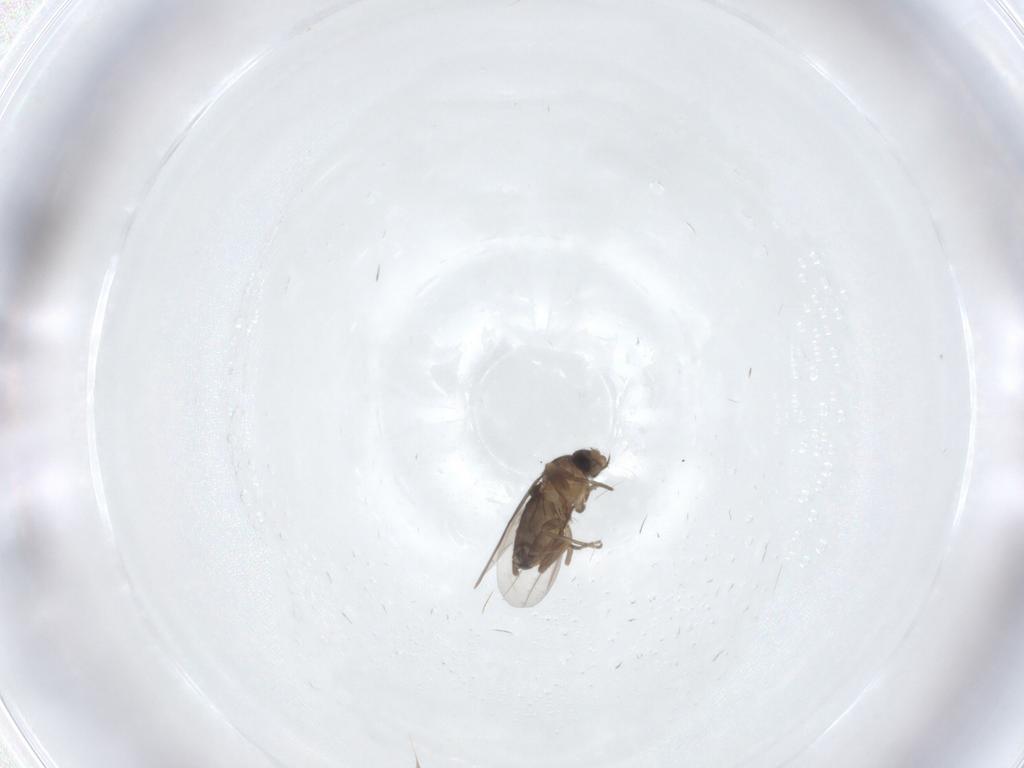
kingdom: Animalia
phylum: Arthropoda
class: Insecta
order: Diptera
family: Phoridae
